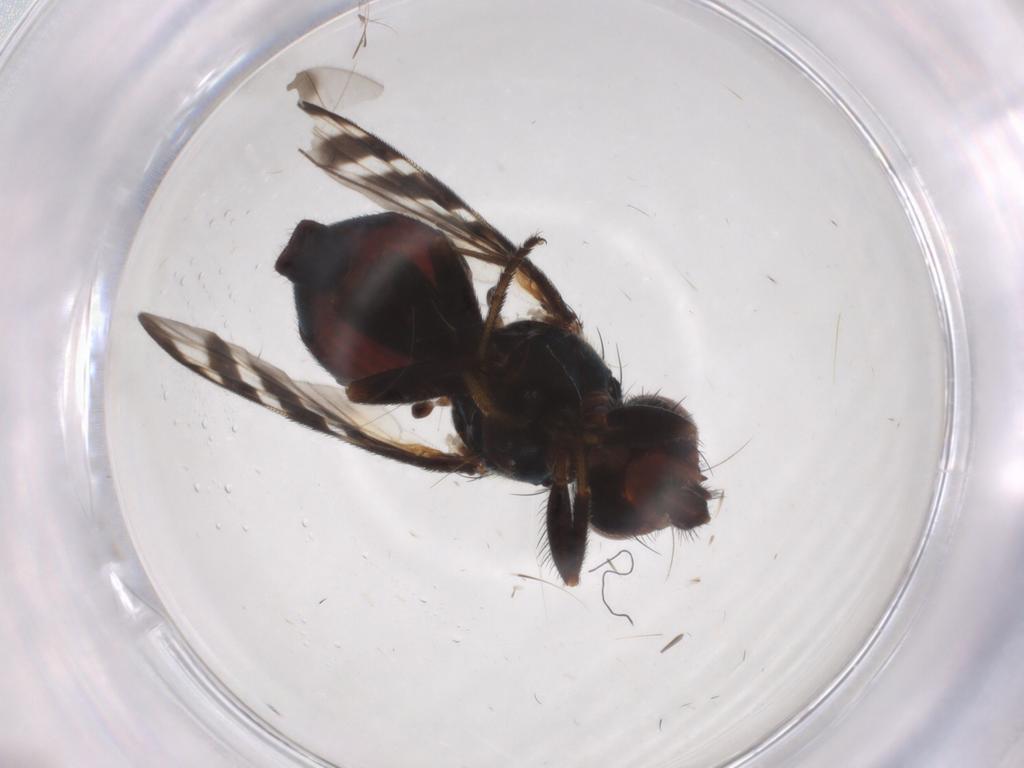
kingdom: Animalia
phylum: Arthropoda
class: Insecta
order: Diptera
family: Platystomatidae
